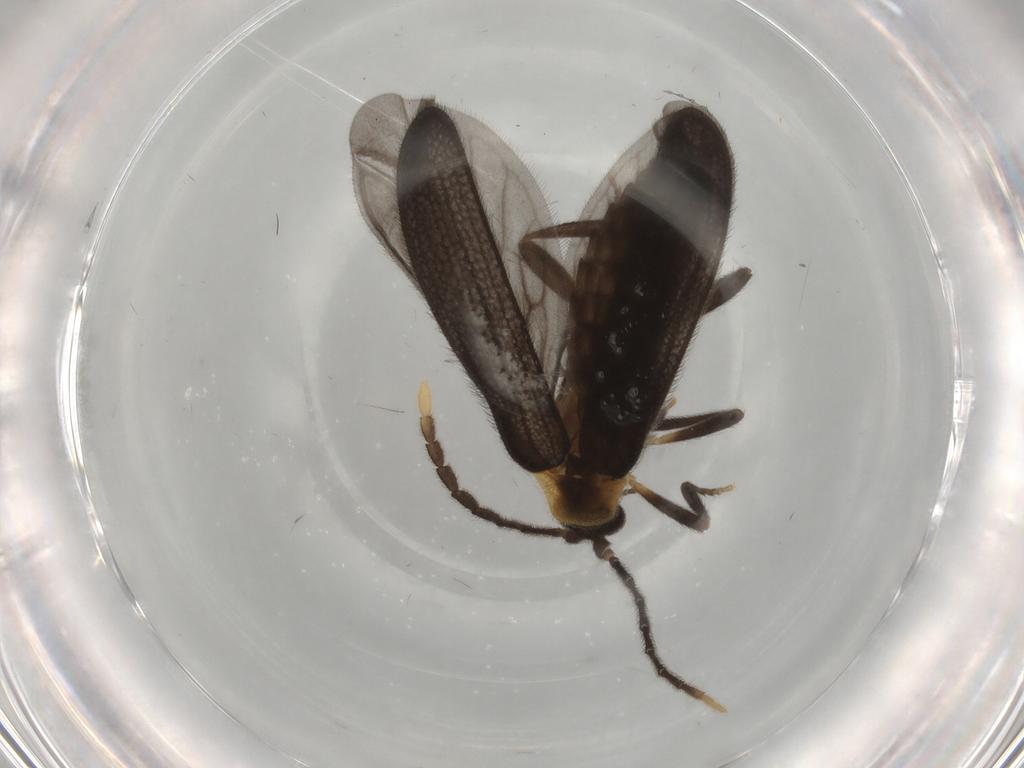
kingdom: Animalia
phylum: Arthropoda
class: Insecta
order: Coleoptera
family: Lycidae
